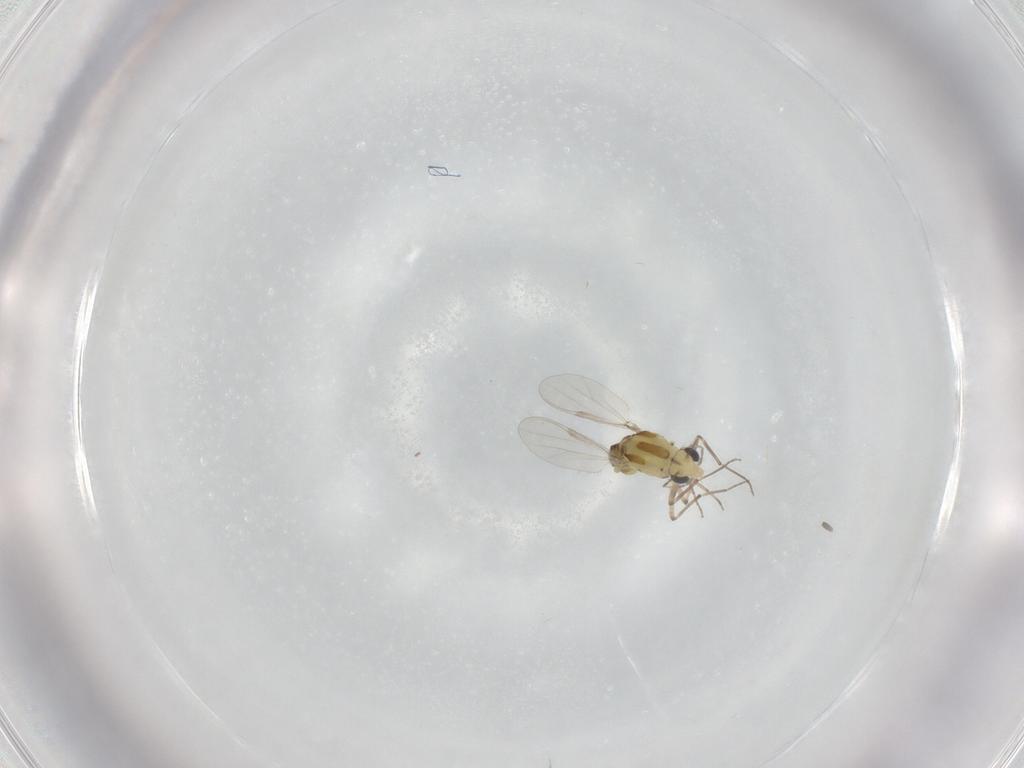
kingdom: Animalia
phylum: Arthropoda
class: Insecta
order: Diptera
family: Chironomidae
